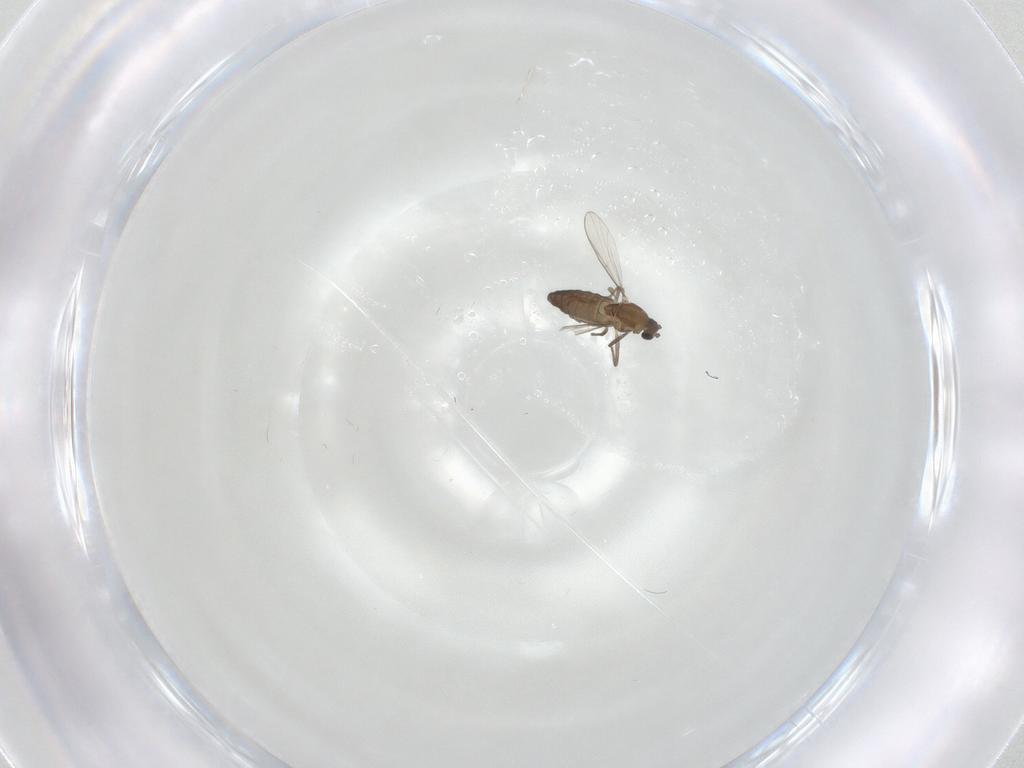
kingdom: Animalia
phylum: Arthropoda
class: Insecta
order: Diptera
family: Chironomidae
